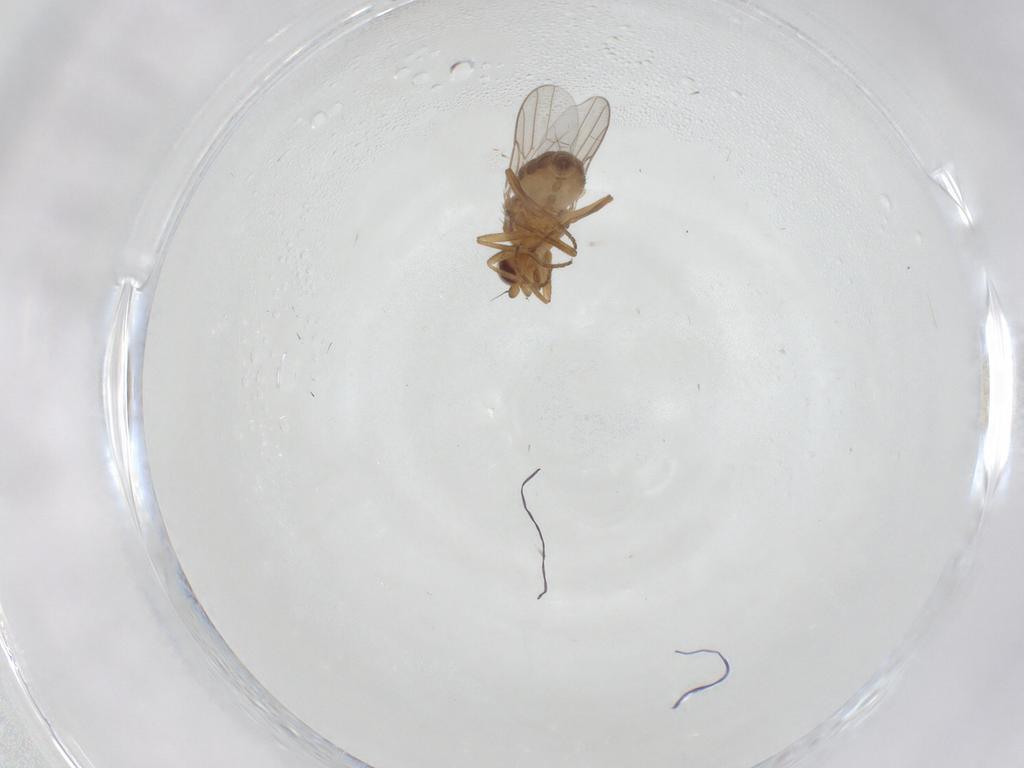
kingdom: Animalia
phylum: Arthropoda
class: Insecta
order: Diptera
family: Chloropidae
